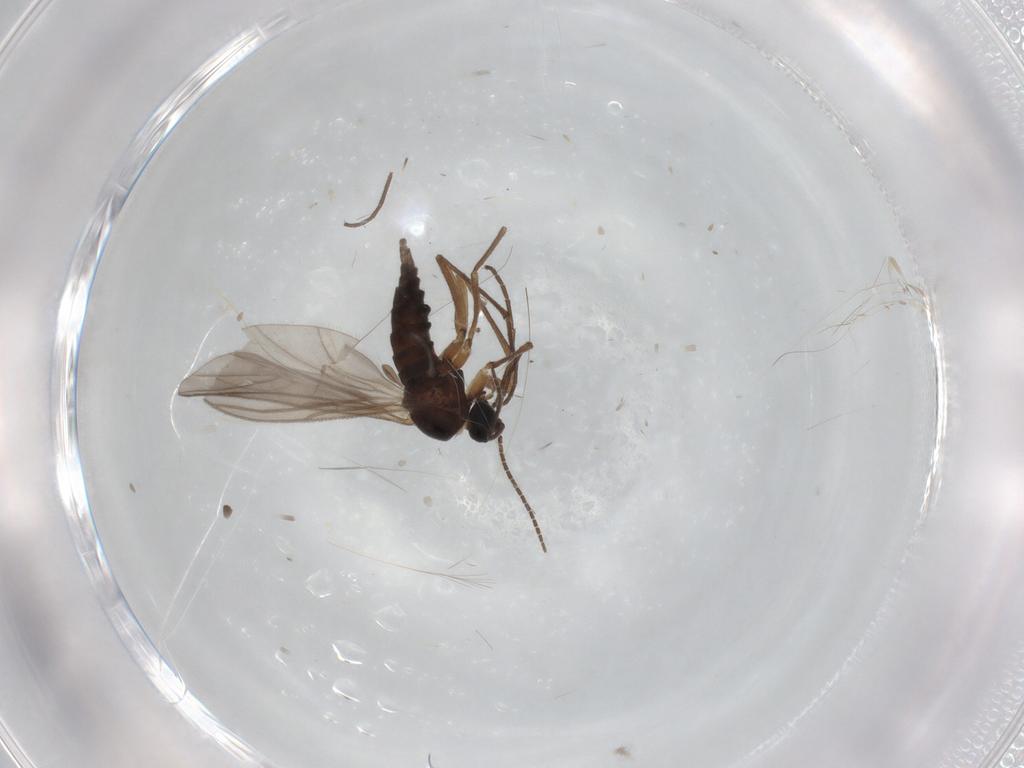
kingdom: Animalia
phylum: Arthropoda
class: Insecta
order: Diptera
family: Sciaridae
